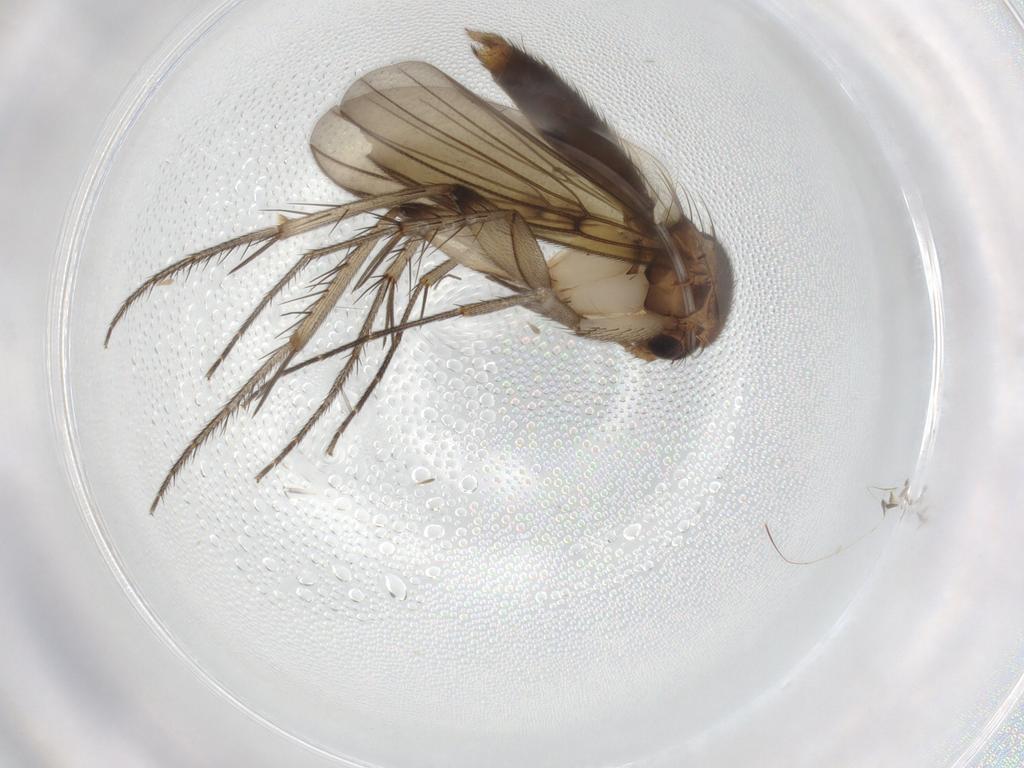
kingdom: Animalia
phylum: Arthropoda
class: Insecta
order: Diptera
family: Mycetophilidae
